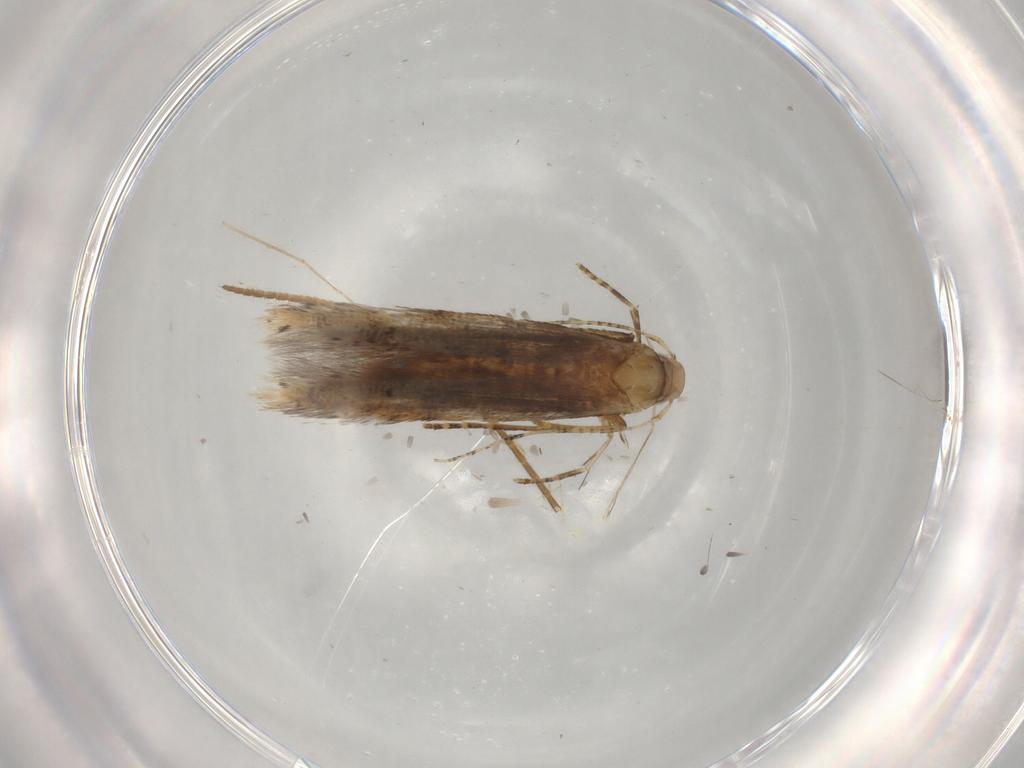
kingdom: Animalia
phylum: Arthropoda
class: Insecta
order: Lepidoptera
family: Crambidae
